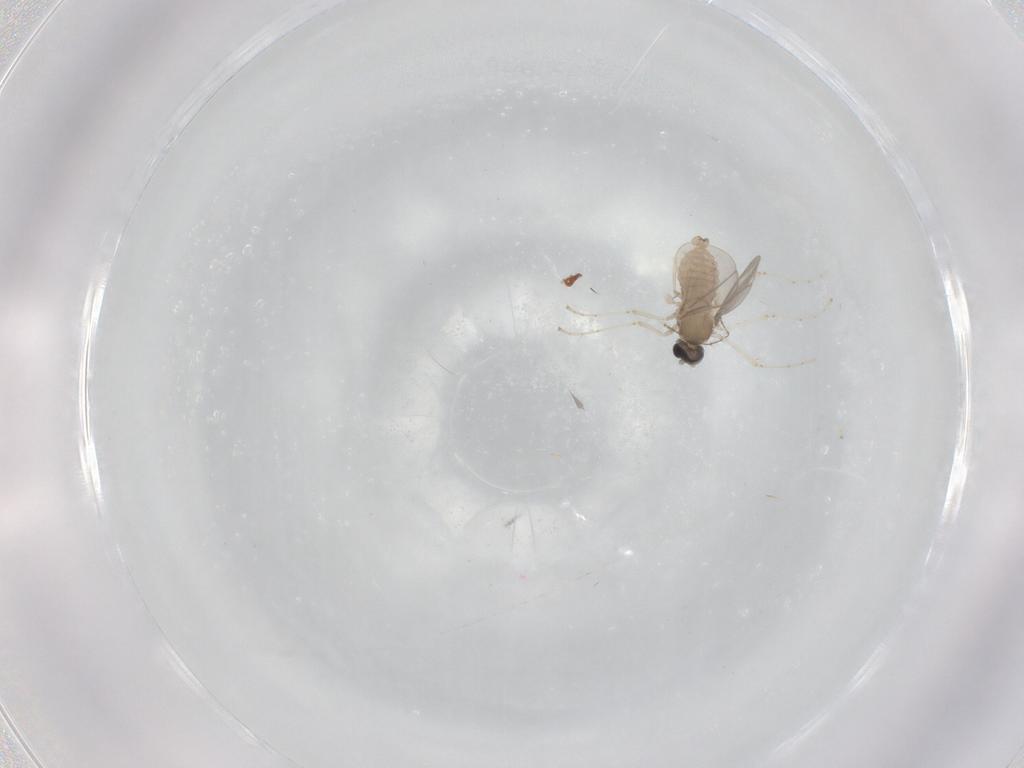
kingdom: Animalia
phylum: Arthropoda
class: Insecta
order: Diptera
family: Cecidomyiidae
